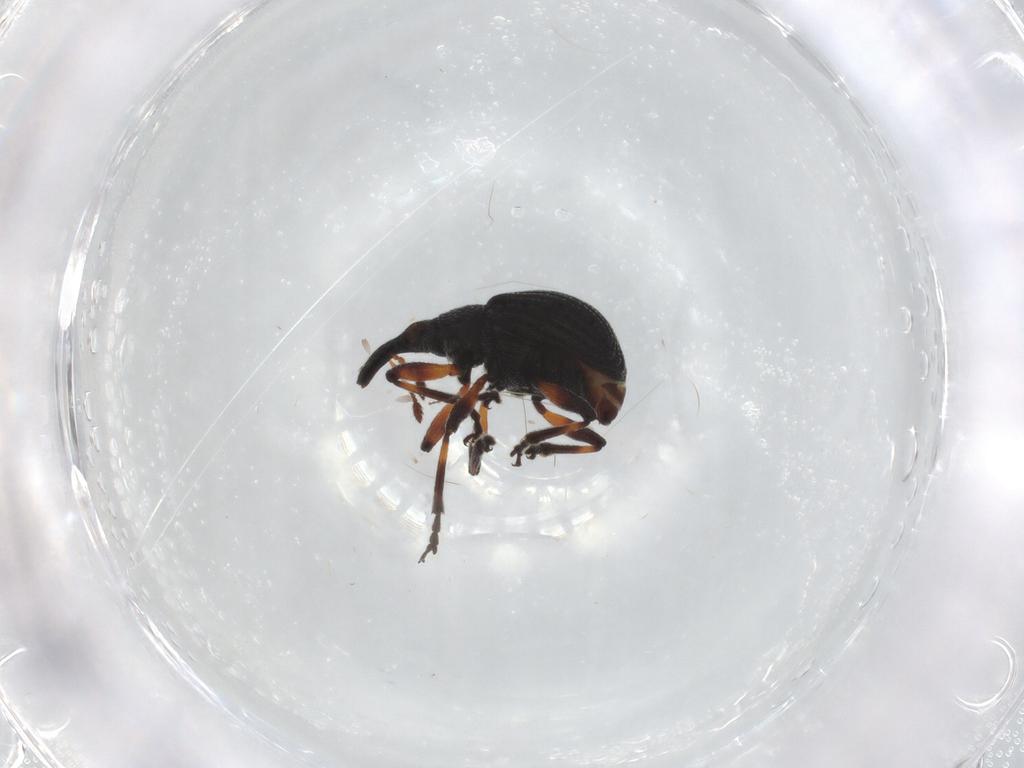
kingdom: Animalia
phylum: Arthropoda
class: Insecta
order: Coleoptera
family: Brentidae
